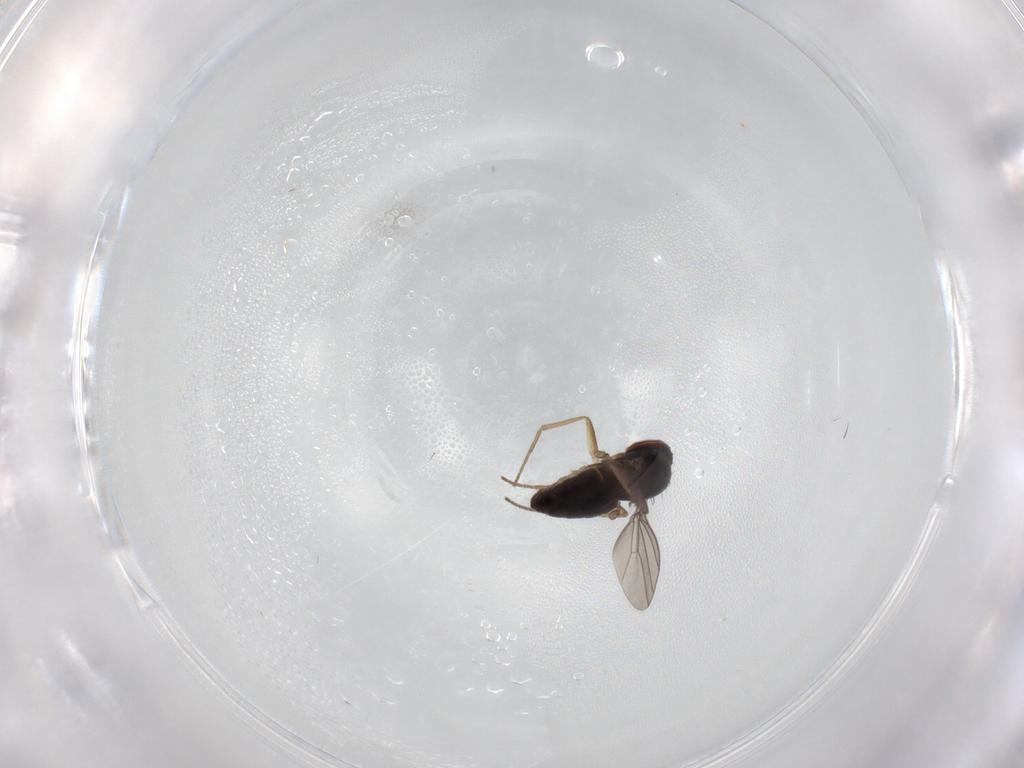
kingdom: Animalia
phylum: Arthropoda
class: Insecta
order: Diptera
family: Dolichopodidae
